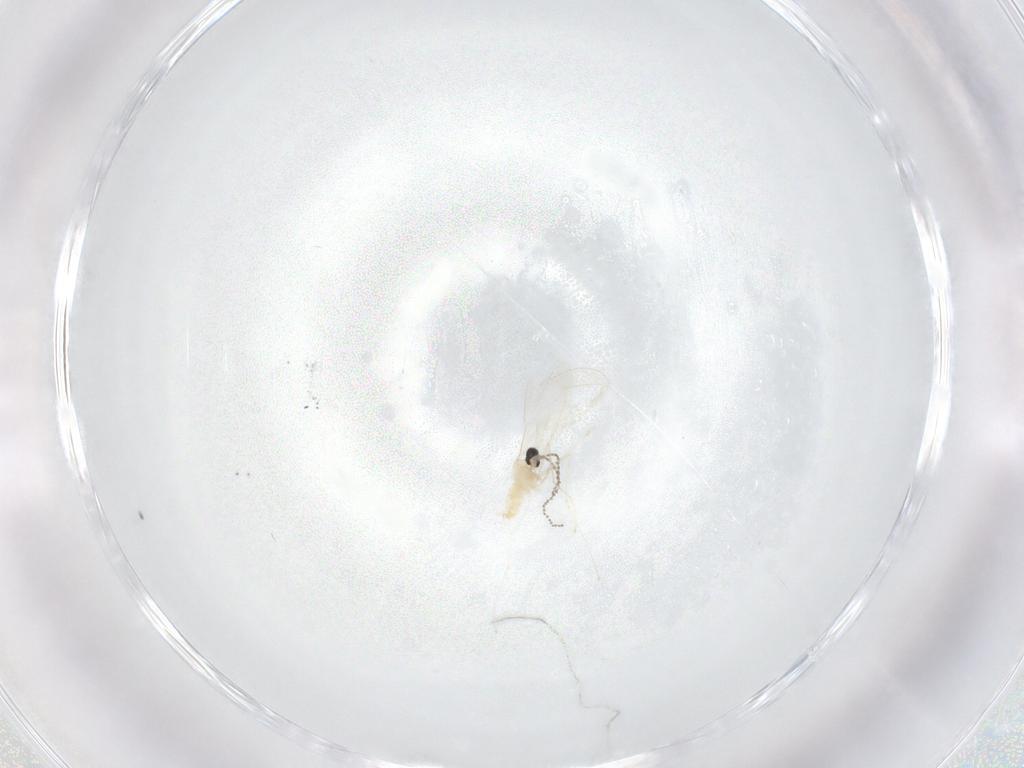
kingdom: Animalia
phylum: Arthropoda
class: Insecta
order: Diptera
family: Cecidomyiidae
